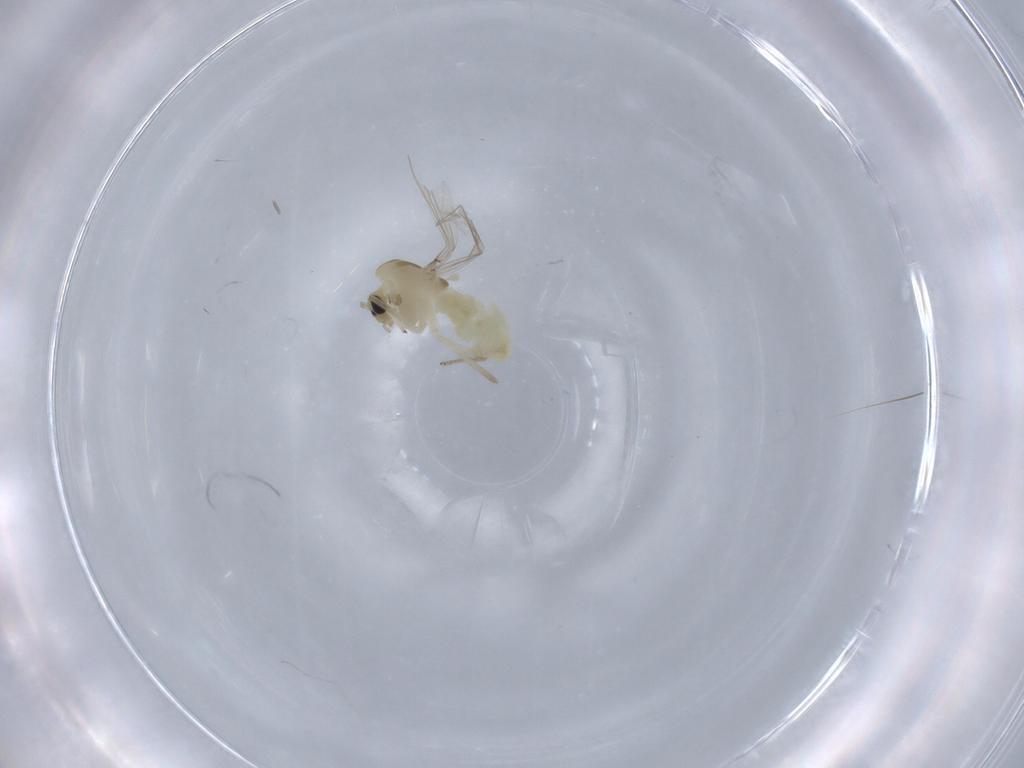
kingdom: Animalia
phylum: Arthropoda
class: Insecta
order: Diptera
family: Chironomidae
